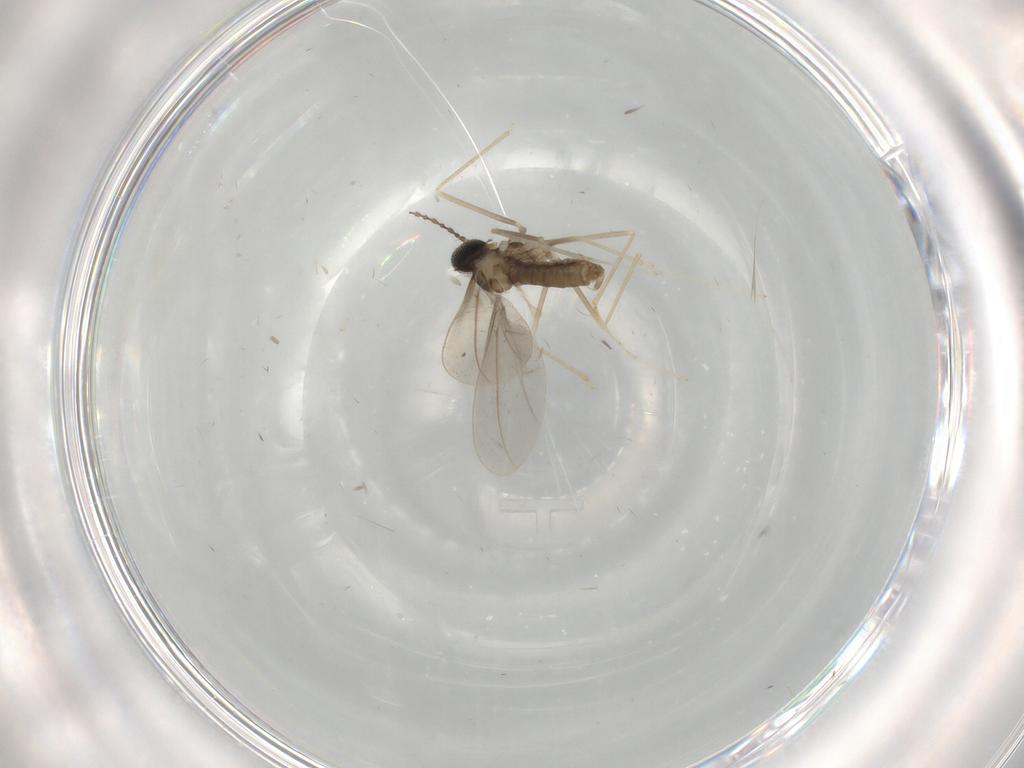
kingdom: Animalia
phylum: Arthropoda
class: Insecta
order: Diptera
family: Cecidomyiidae
